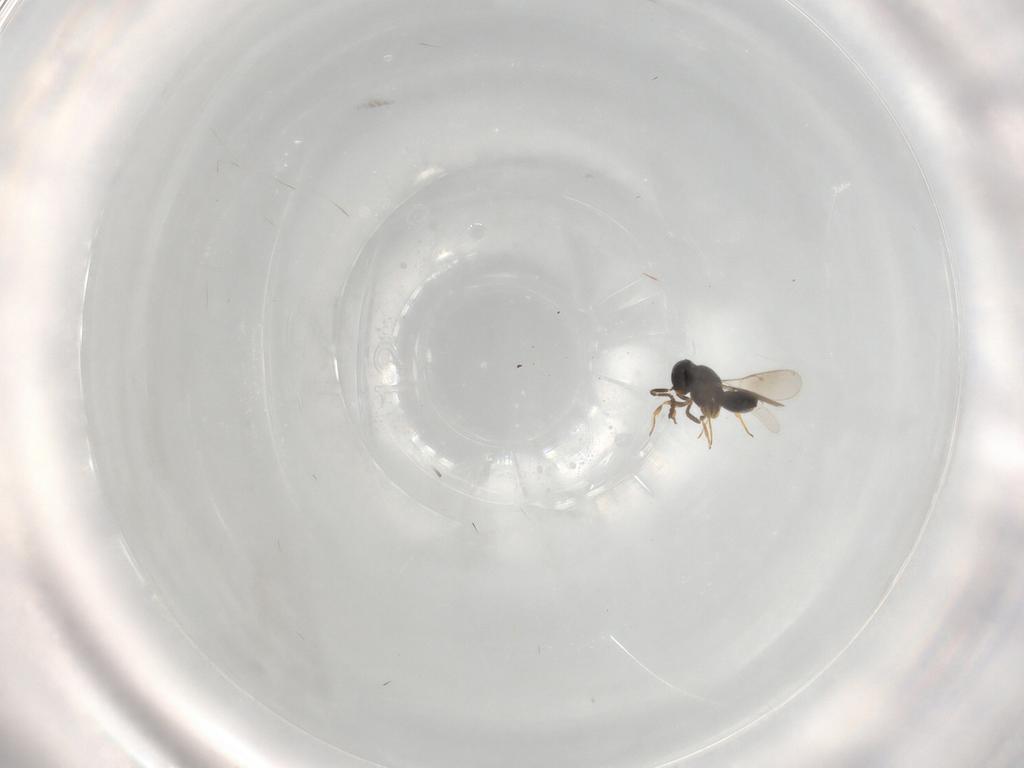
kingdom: Animalia
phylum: Arthropoda
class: Insecta
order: Hymenoptera
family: Scelionidae
